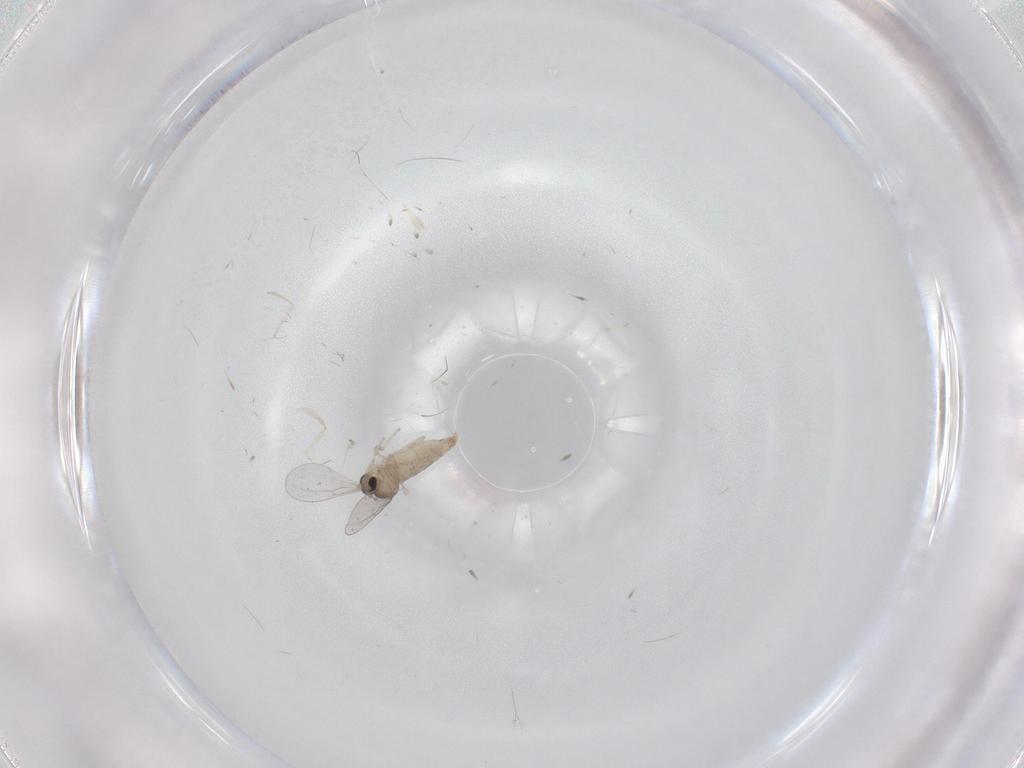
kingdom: Animalia
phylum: Arthropoda
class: Insecta
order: Diptera
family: Cecidomyiidae
